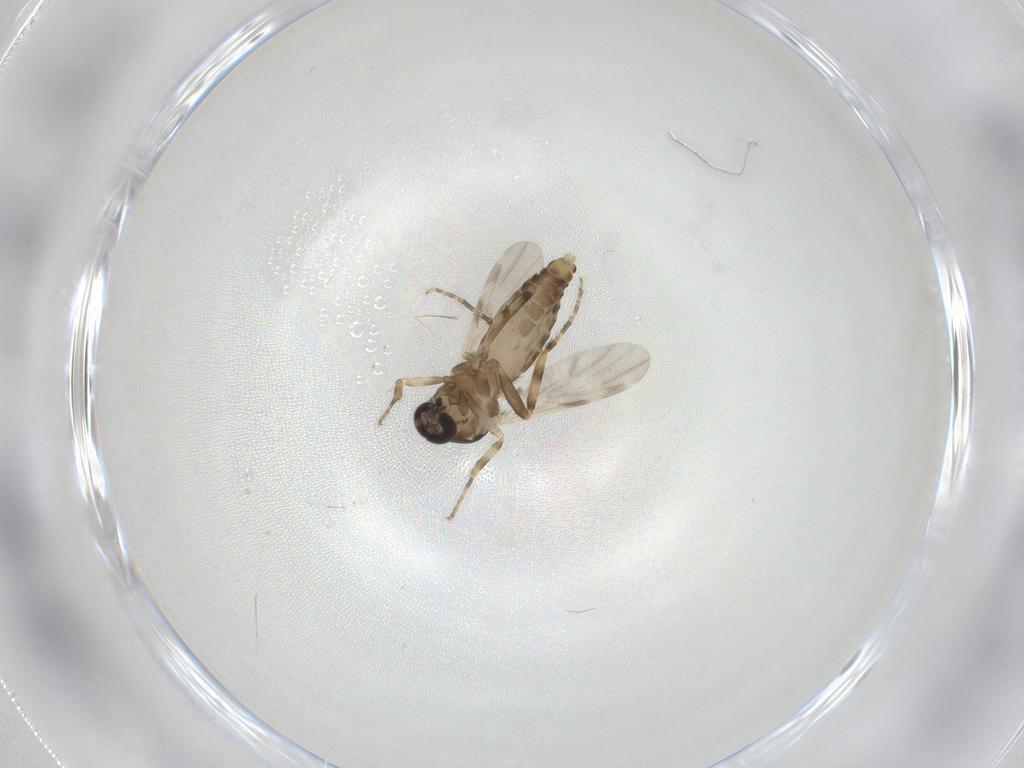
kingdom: Animalia
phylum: Arthropoda
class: Insecta
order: Diptera
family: Ceratopogonidae
